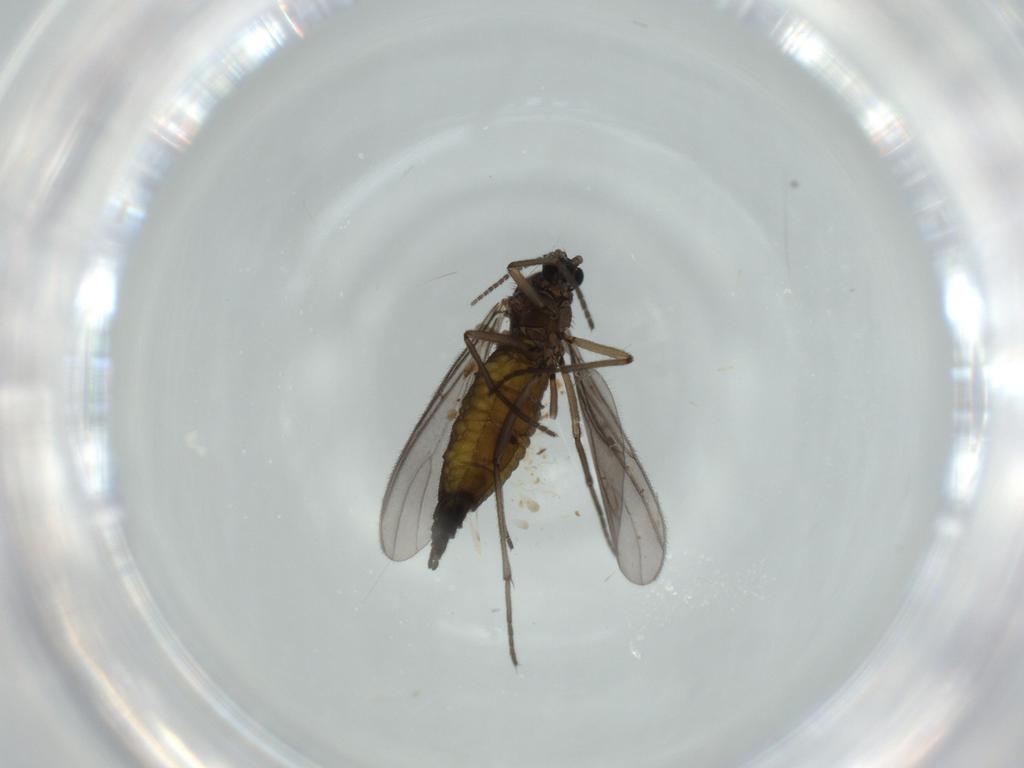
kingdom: Animalia
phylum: Arthropoda
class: Insecta
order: Diptera
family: Sciaridae
